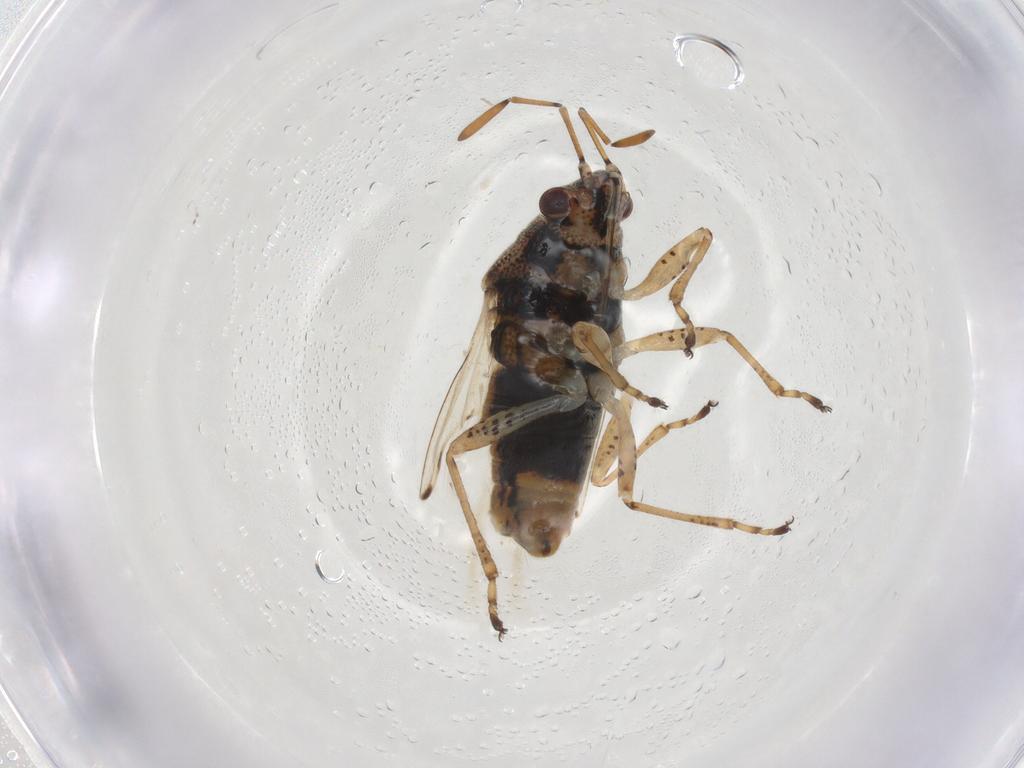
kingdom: Animalia
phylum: Arthropoda
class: Insecta
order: Hemiptera
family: Lygaeidae
